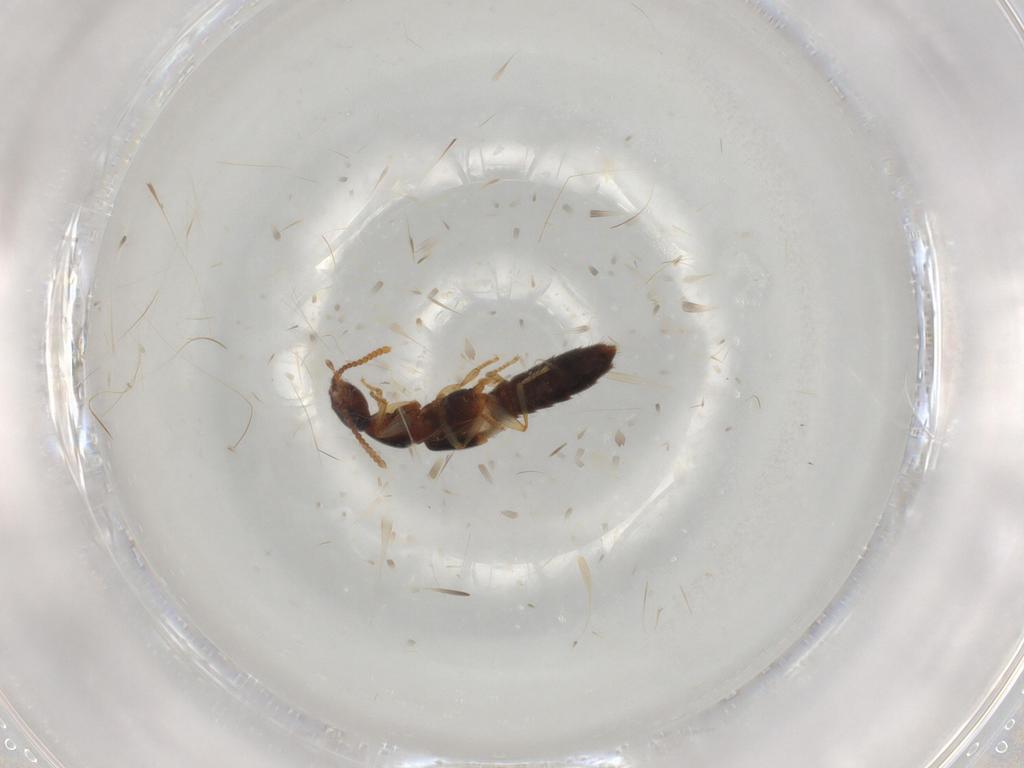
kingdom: Animalia
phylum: Arthropoda
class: Insecta
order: Coleoptera
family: Staphylinidae
